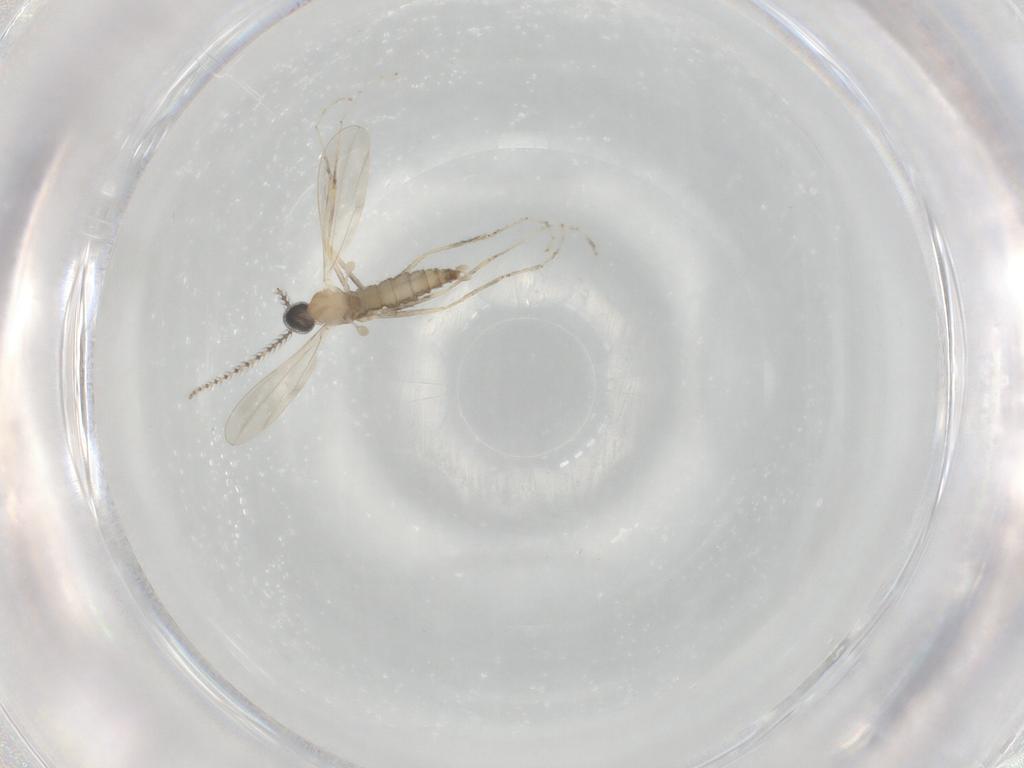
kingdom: Animalia
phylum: Arthropoda
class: Insecta
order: Diptera
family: Cecidomyiidae
